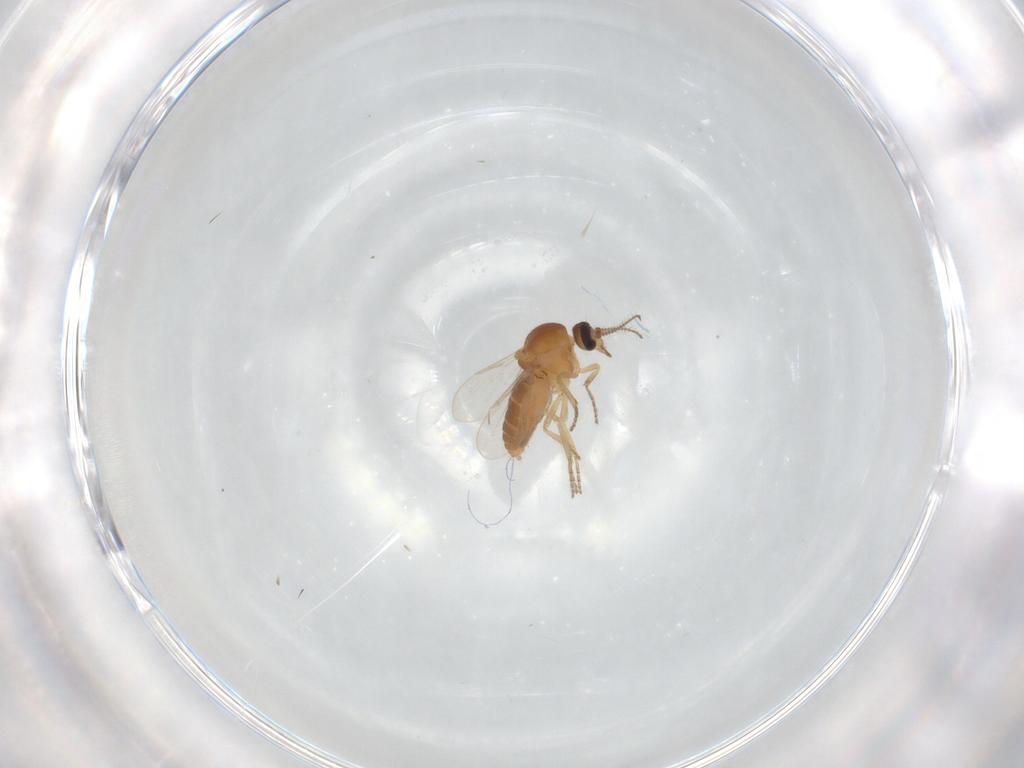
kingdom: Animalia
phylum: Arthropoda
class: Insecta
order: Diptera
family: Ceratopogonidae
